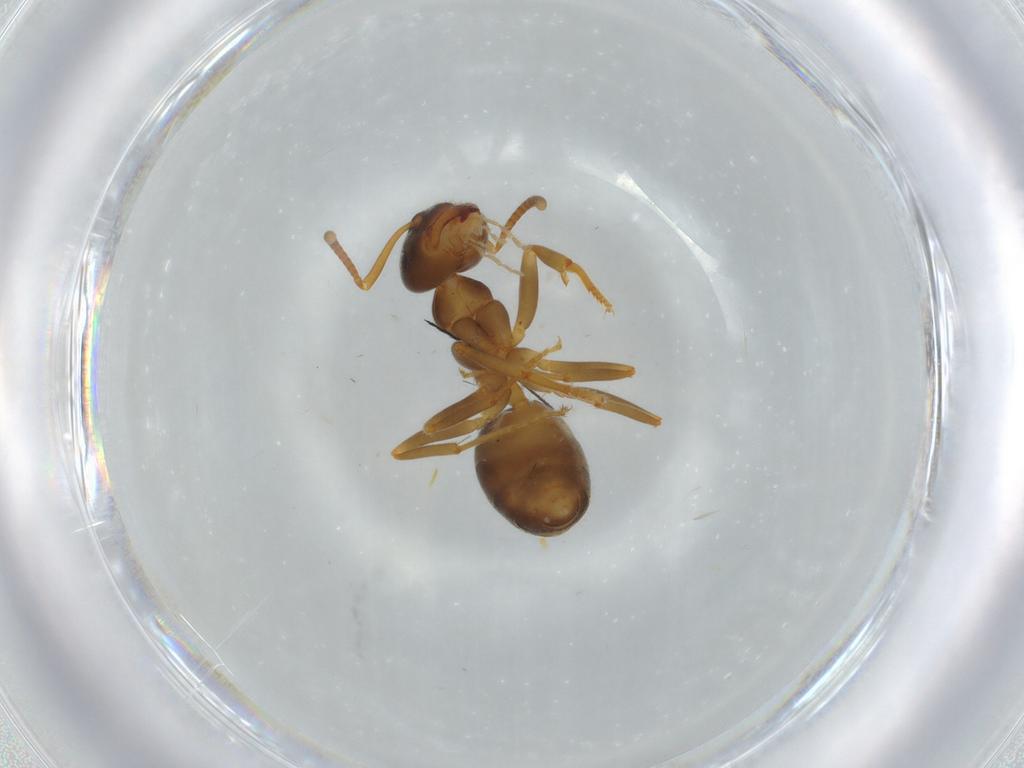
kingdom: Animalia
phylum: Arthropoda
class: Insecta
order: Hymenoptera
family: Formicidae
